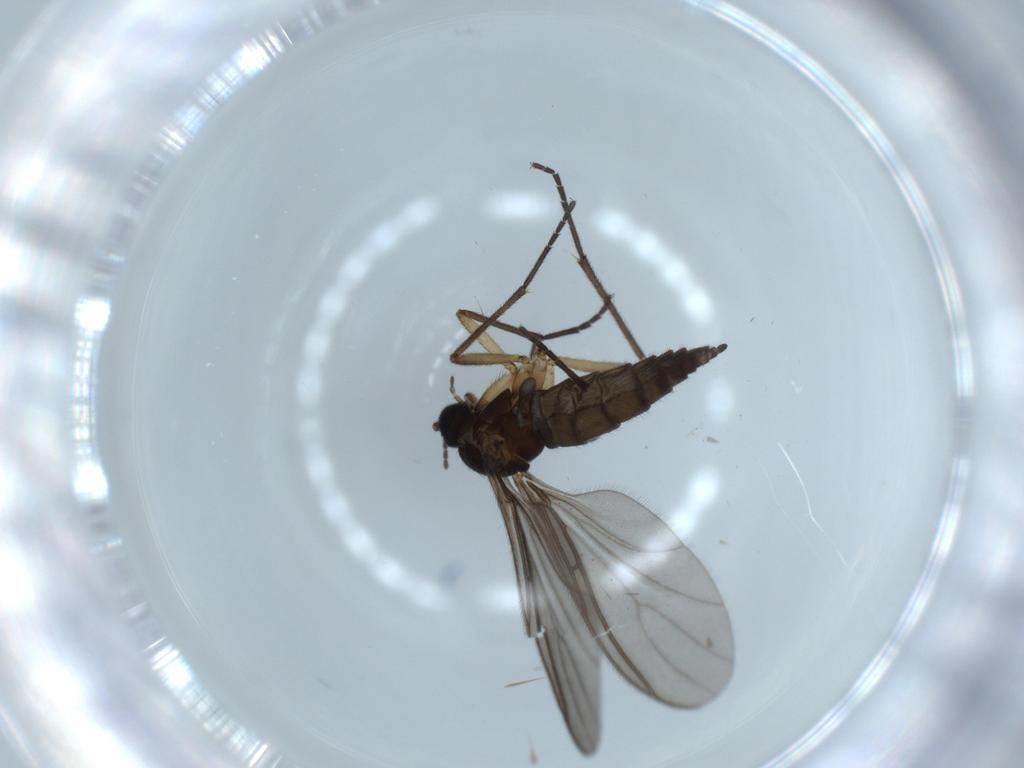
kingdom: Animalia
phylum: Arthropoda
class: Insecta
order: Diptera
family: Sciaridae
